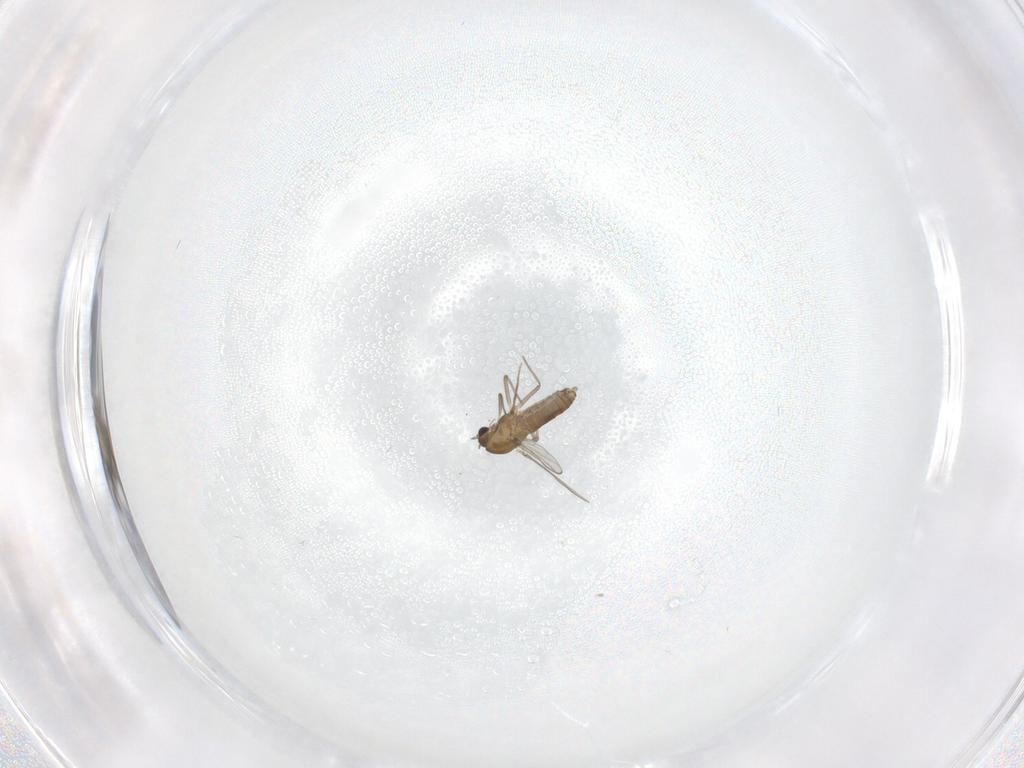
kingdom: Animalia
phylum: Arthropoda
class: Insecta
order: Diptera
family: Chironomidae
